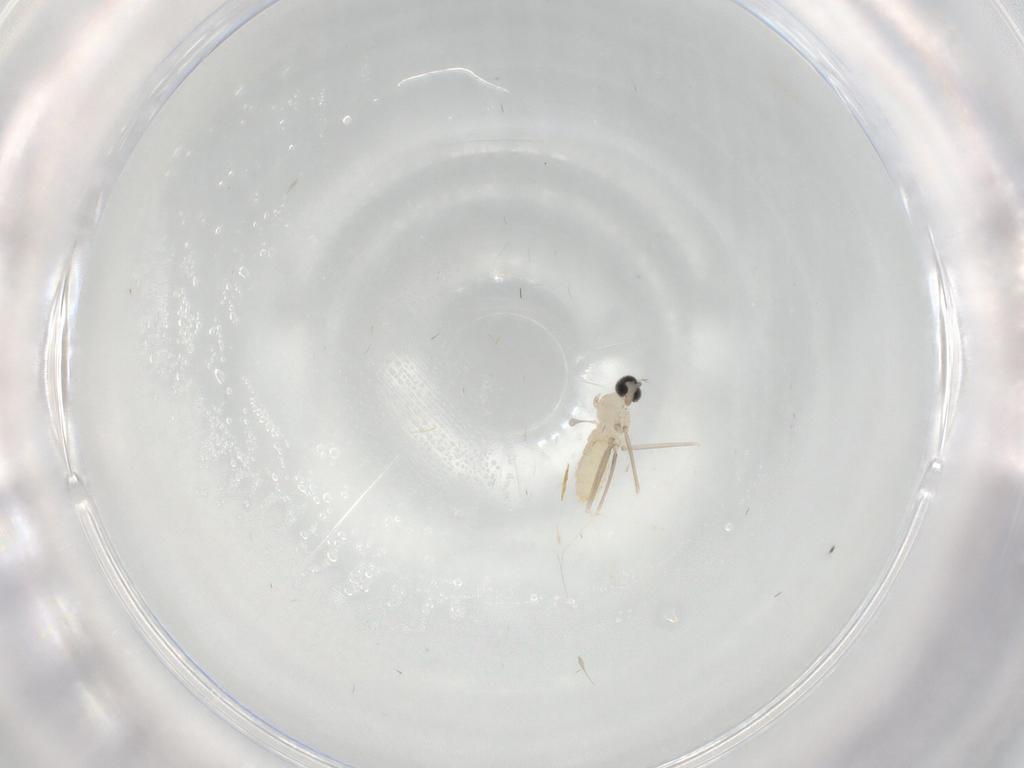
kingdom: Animalia
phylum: Arthropoda
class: Insecta
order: Diptera
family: Cecidomyiidae
